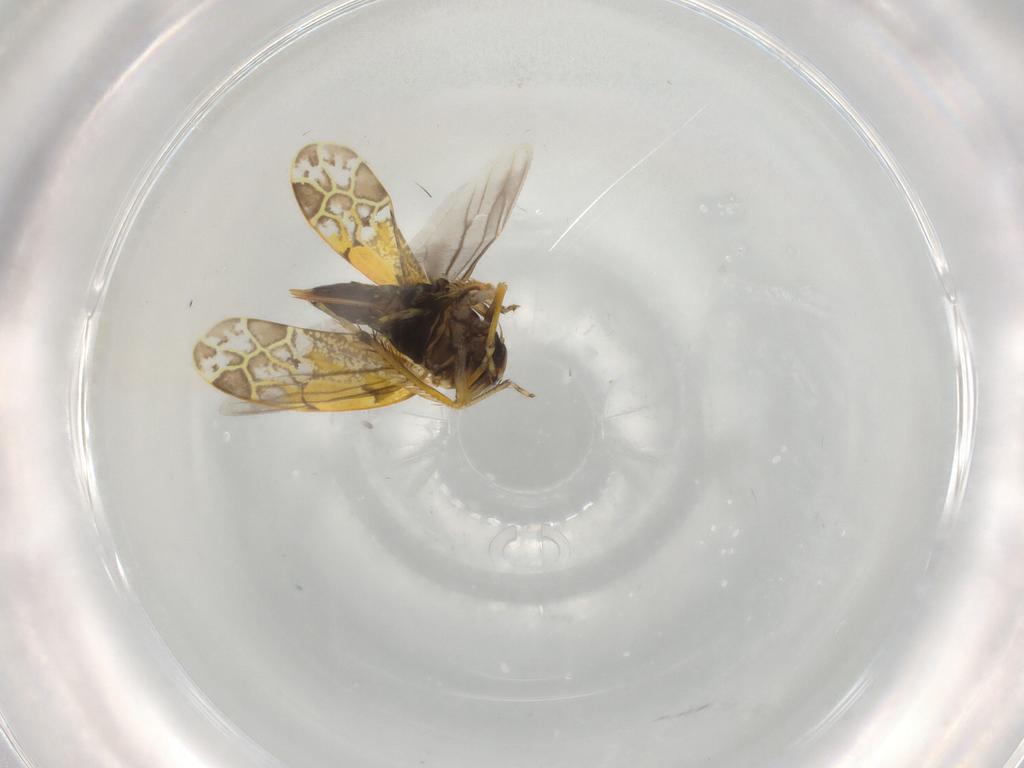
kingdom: Animalia
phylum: Arthropoda
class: Insecta
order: Hemiptera
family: Cicadellidae
